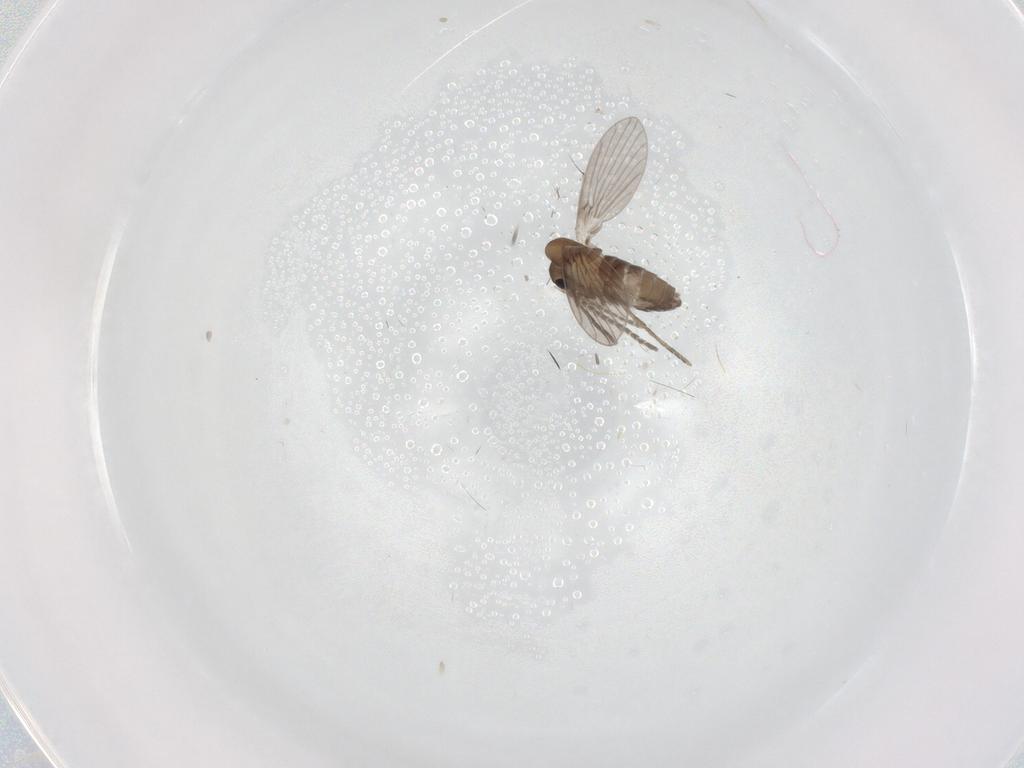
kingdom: Animalia
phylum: Arthropoda
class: Insecta
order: Diptera
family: Psychodidae
